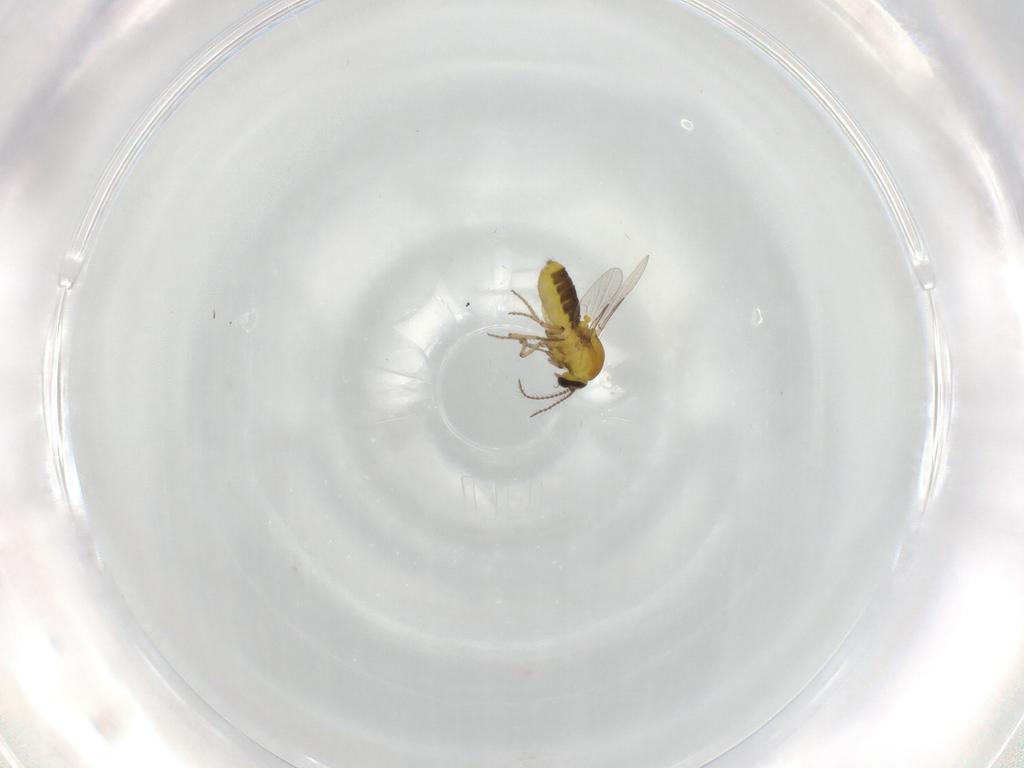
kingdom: Animalia
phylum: Arthropoda
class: Insecta
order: Diptera
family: Ceratopogonidae
